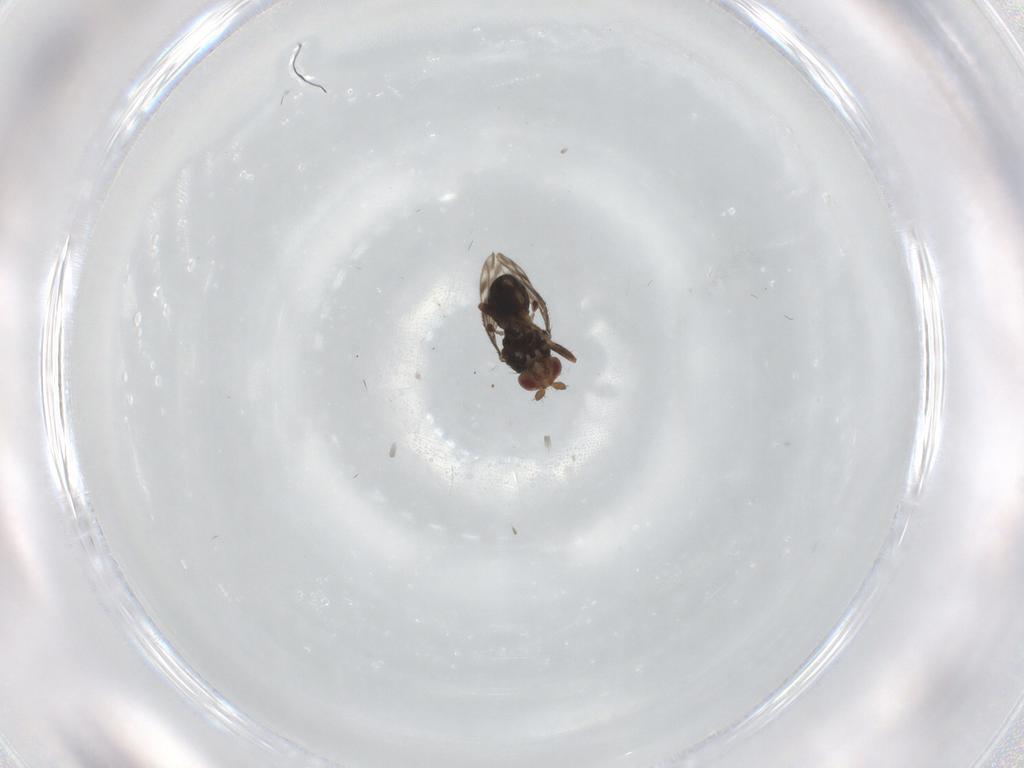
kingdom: Animalia
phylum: Arthropoda
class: Insecta
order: Diptera
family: Sphaeroceridae
